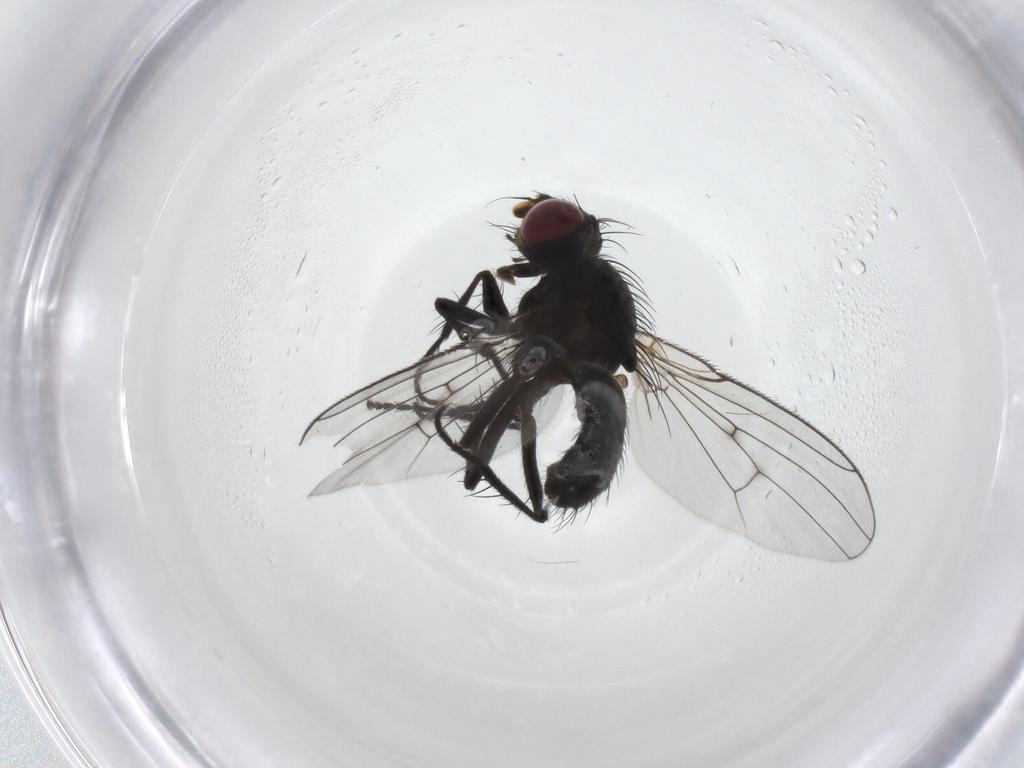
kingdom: Animalia
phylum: Arthropoda
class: Insecta
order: Diptera
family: Muscidae
